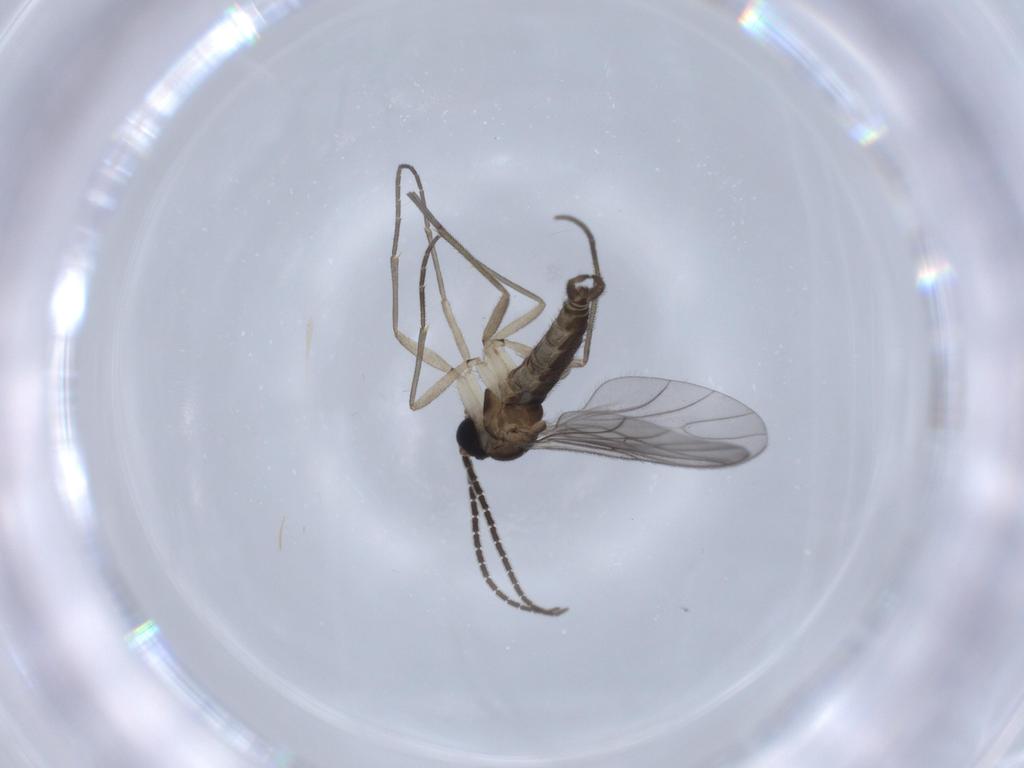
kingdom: Animalia
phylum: Arthropoda
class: Insecta
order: Diptera
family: Sciaridae
